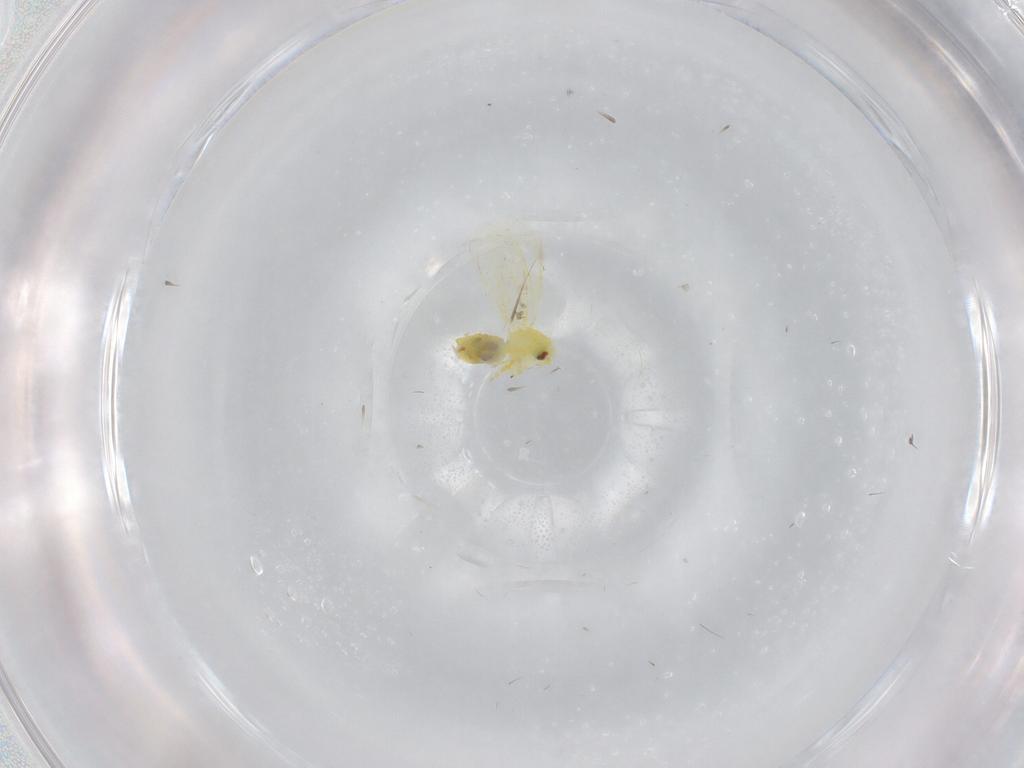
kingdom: Animalia
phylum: Arthropoda
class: Insecta
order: Hemiptera
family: Aleyrodidae
